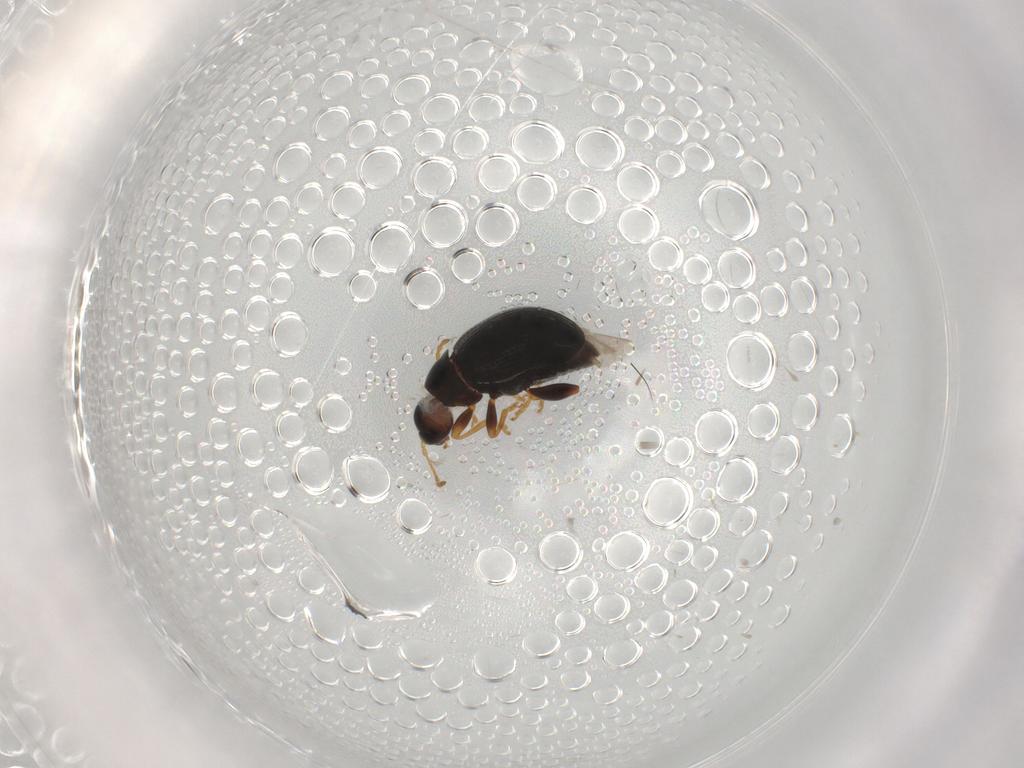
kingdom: Animalia
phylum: Arthropoda
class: Insecta
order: Coleoptera
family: Chrysomelidae
